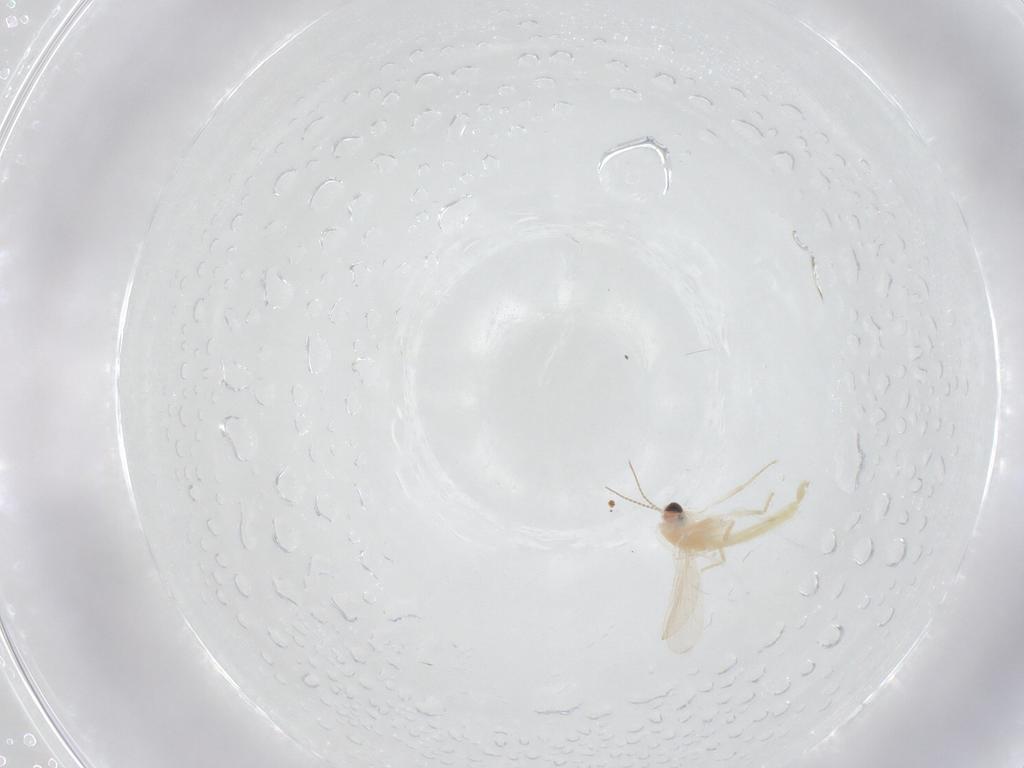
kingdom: Animalia
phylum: Arthropoda
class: Insecta
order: Diptera
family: Chironomidae
